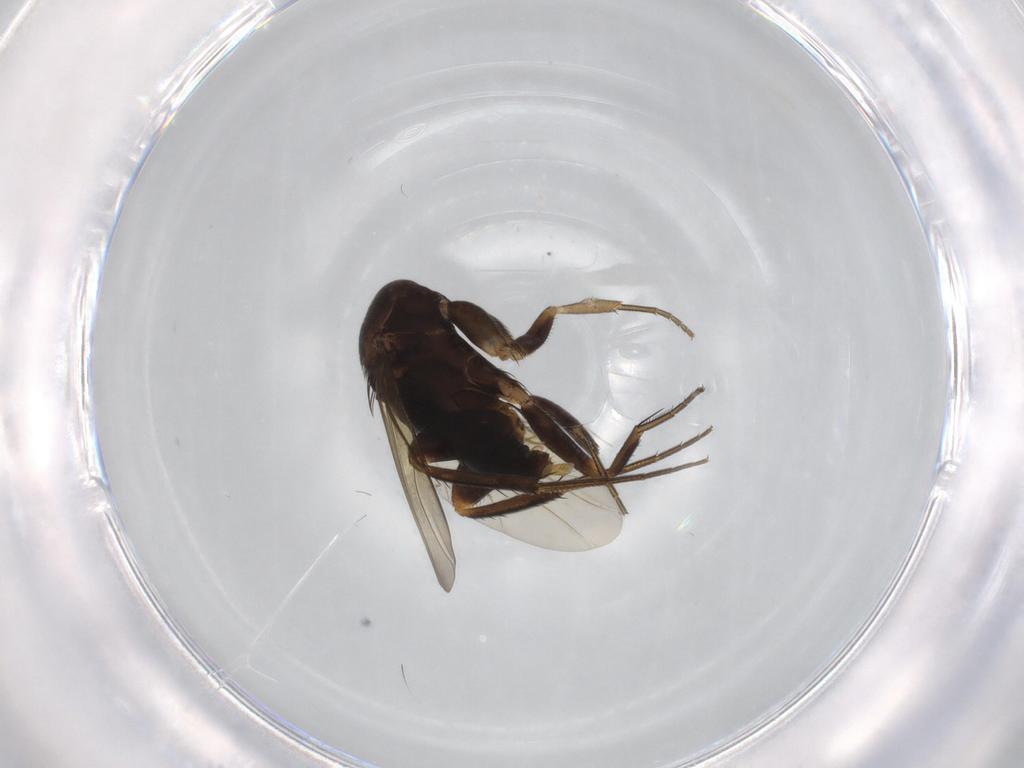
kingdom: Animalia
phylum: Arthropoda
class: Insecta
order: Diptera
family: Phoridae
